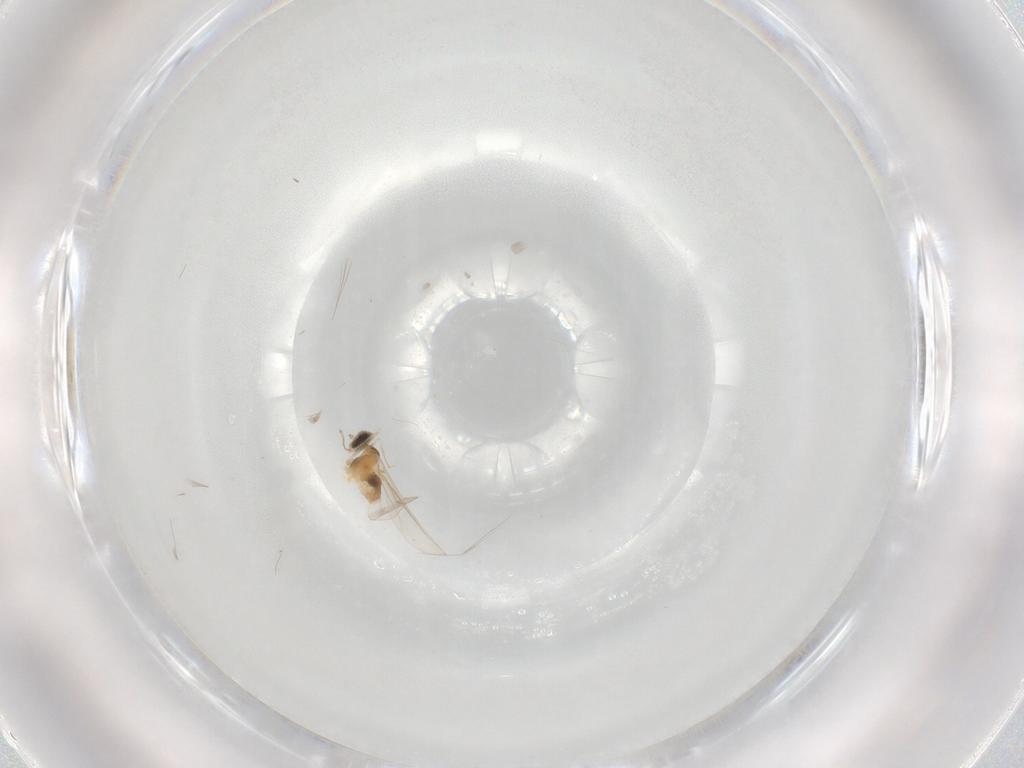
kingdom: Animalia
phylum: Arthropoda
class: Insecta
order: Diptera
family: Cecidomyiidae
